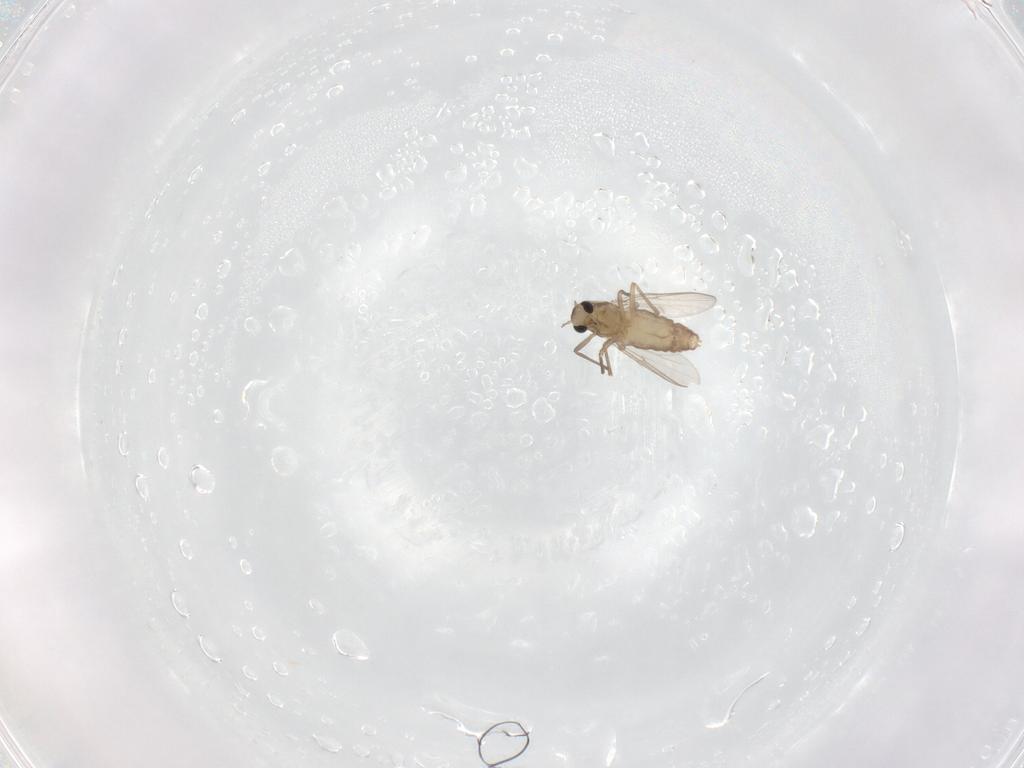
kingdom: Animalia
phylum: Arthropoda
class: Insecta
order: Diptera
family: Chironomidae
